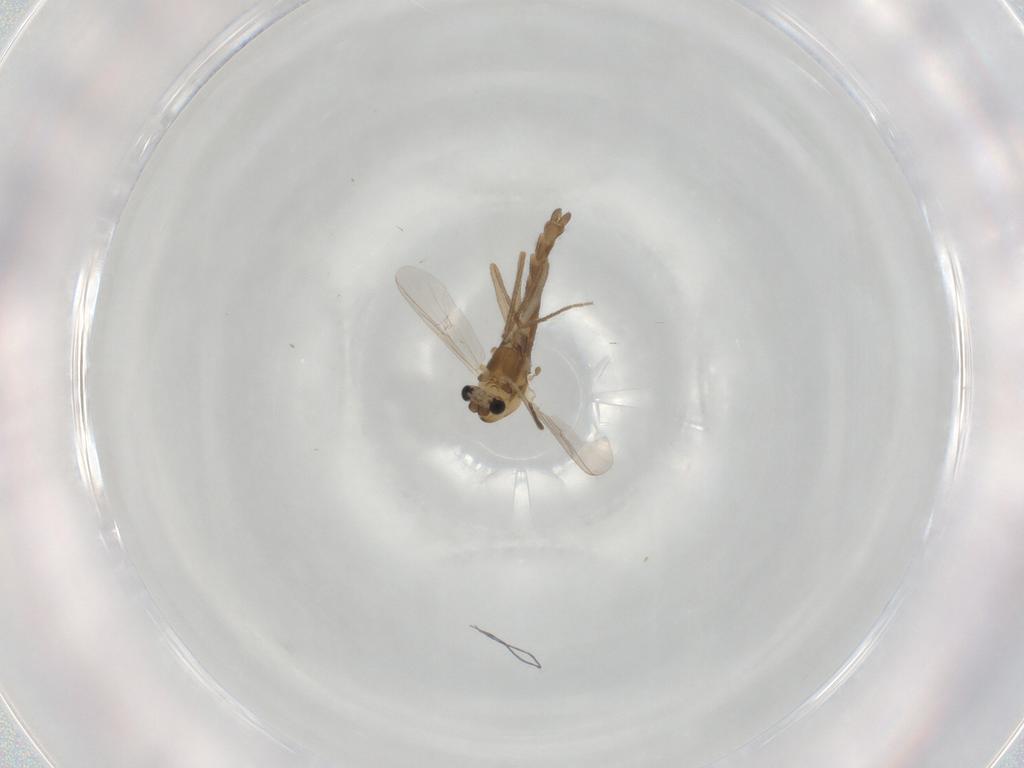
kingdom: Animalia
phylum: Arthropoda
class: Insecta
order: Diptera
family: Chironomidae
